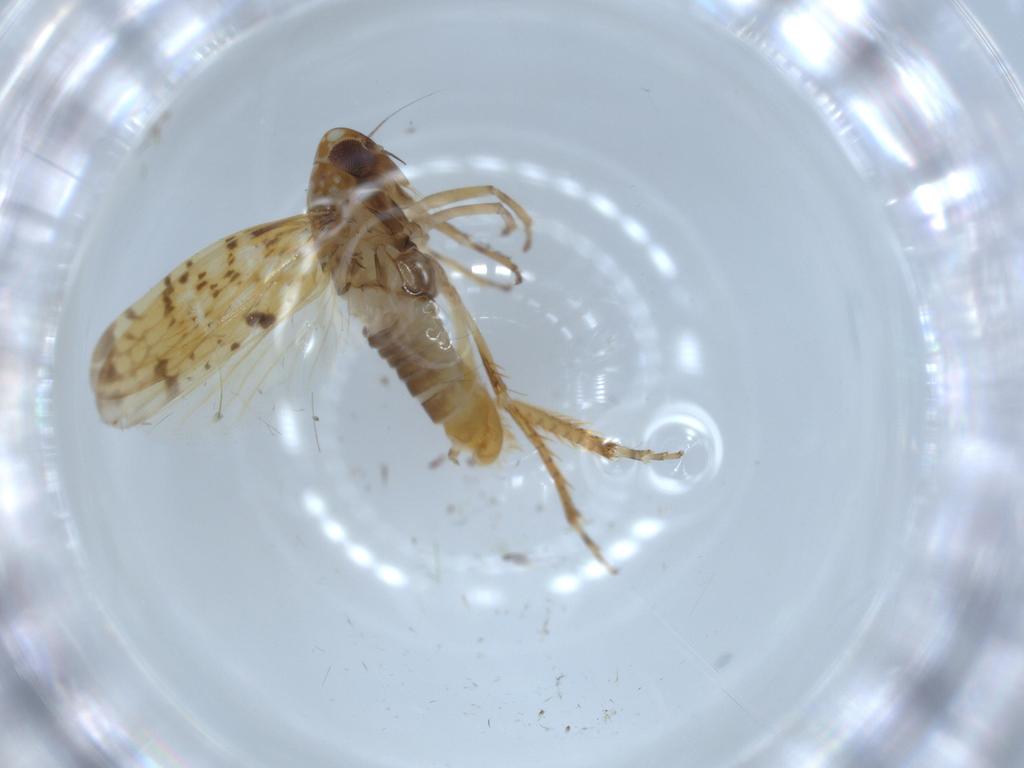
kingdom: Animalia
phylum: Arthropoda
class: Insecta
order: Hemiptera
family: Cicadellidae
